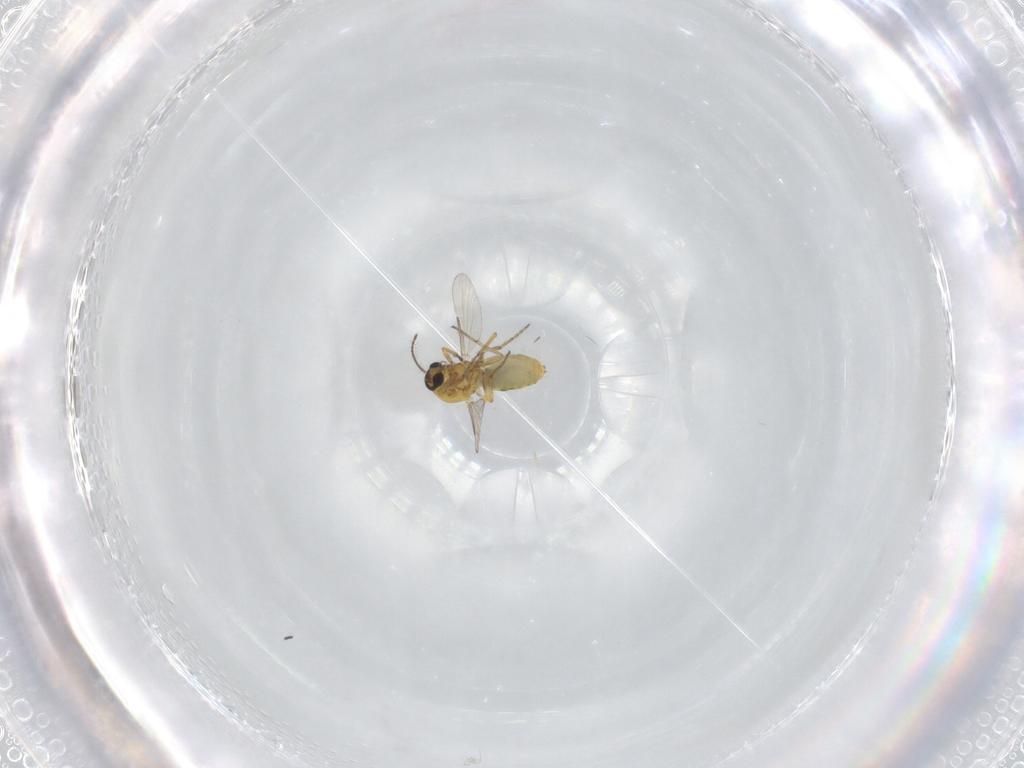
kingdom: Animalia
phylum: Arthropoda
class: Insecta
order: Diptera
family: Ceratopogonidae
